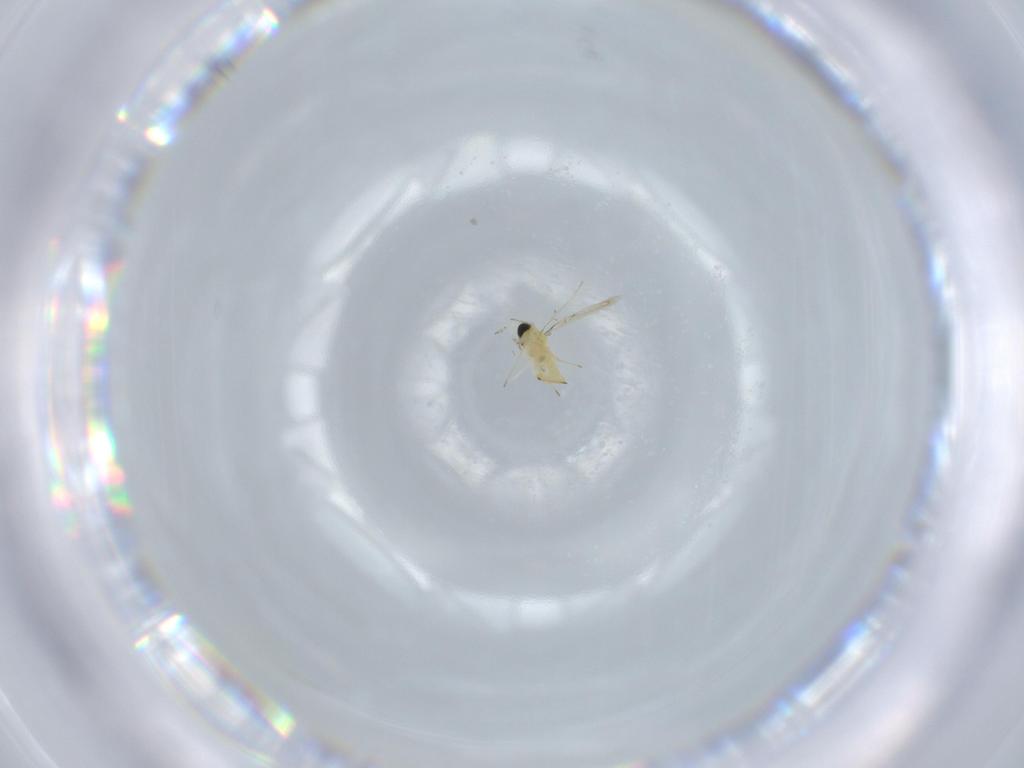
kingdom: Animalia
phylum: Arthropoda
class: Insecta
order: Hymenoptera
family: Trichogrammatidae
